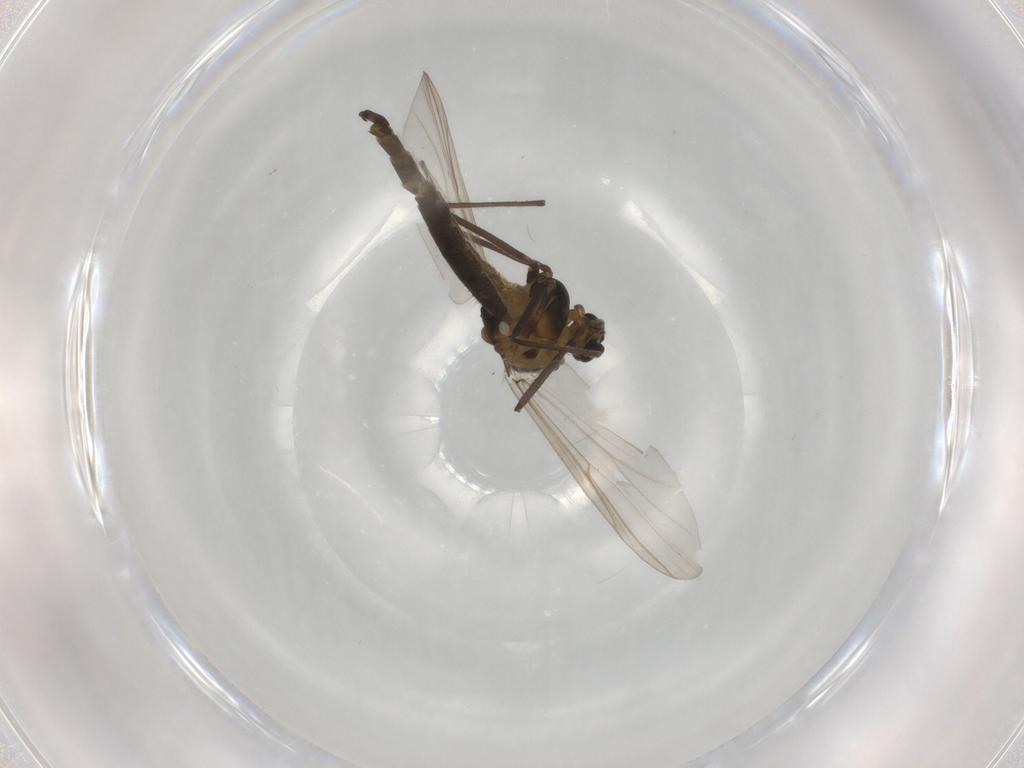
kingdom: Animalia
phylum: Arthropoda
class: Insecta
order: Diptera
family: Chironomidae
